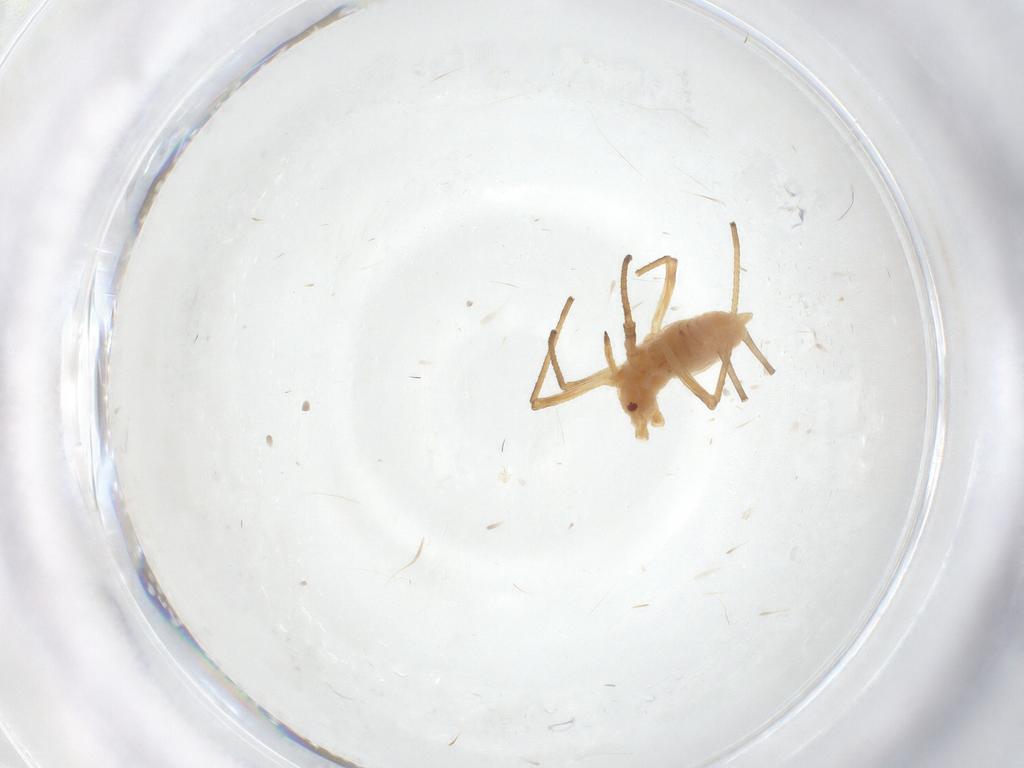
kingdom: Animalia
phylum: Arthropoda
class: Insecta
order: Hemiptera
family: Aphididae
